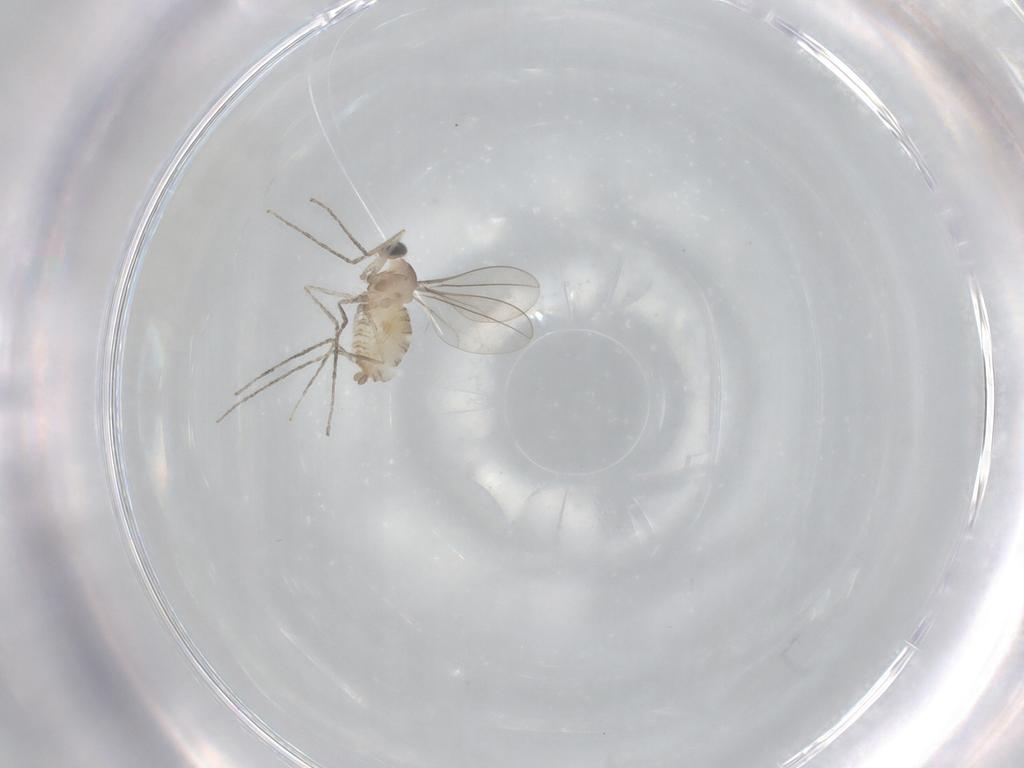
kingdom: Animalia
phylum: Arthropoda
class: Insecta
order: Diptera
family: Cecidomyiidae
